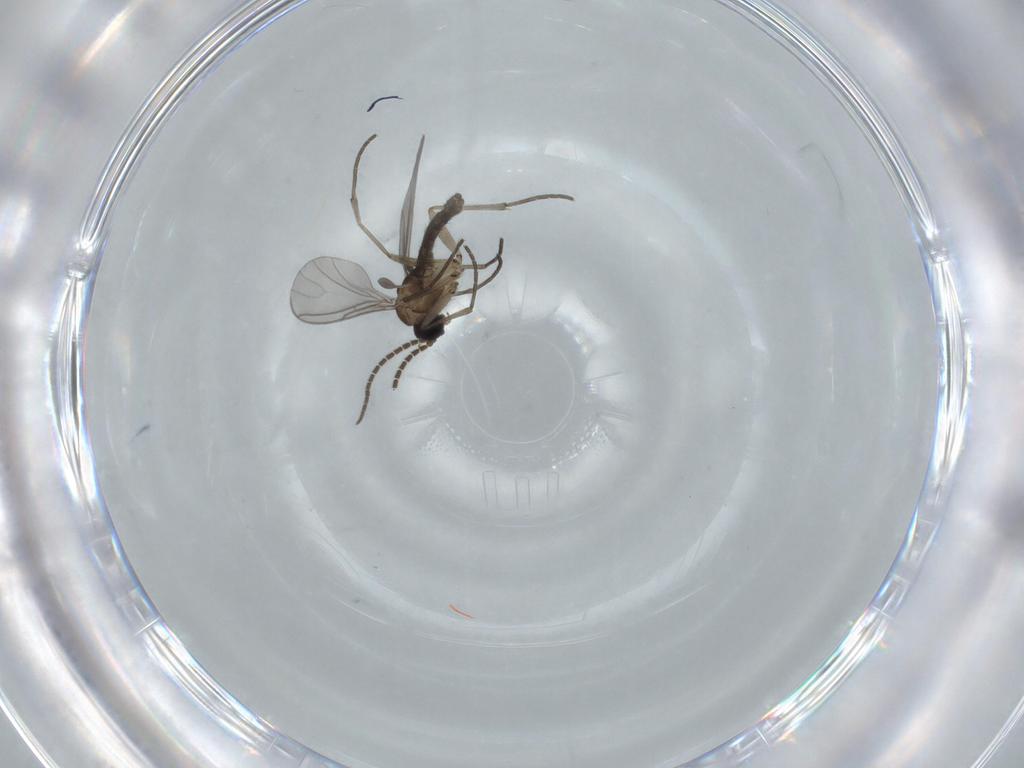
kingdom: Animalia
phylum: Arthropoda
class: Insecta
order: Diptera
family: Sciaridae
